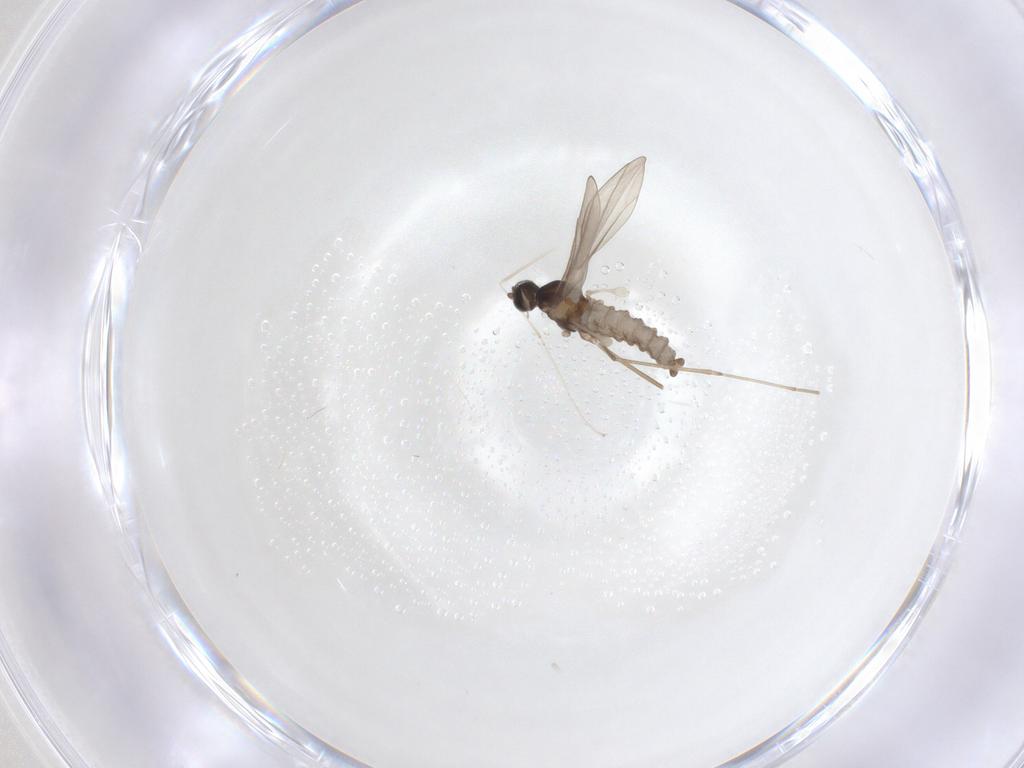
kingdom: Animalia
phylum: Arthropoda
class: Insecta
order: Diptera
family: Cecidomyiidae
